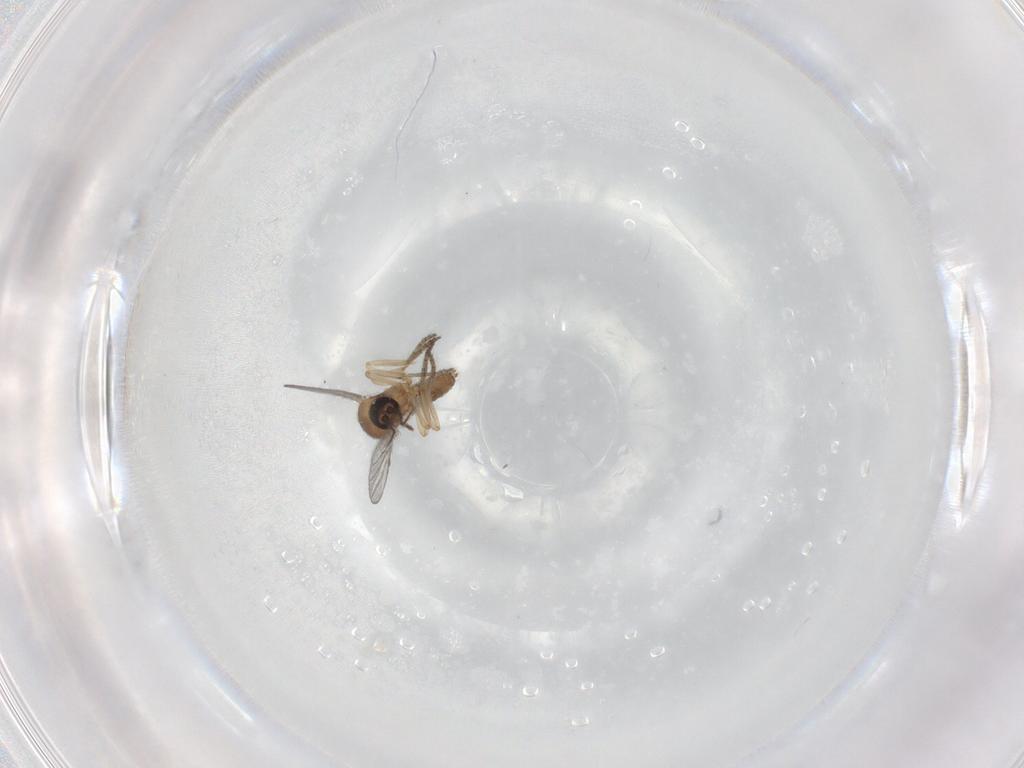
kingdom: Animalia
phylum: Arthropoda
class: Insecta
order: Diptera
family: Ceratopogonidae
